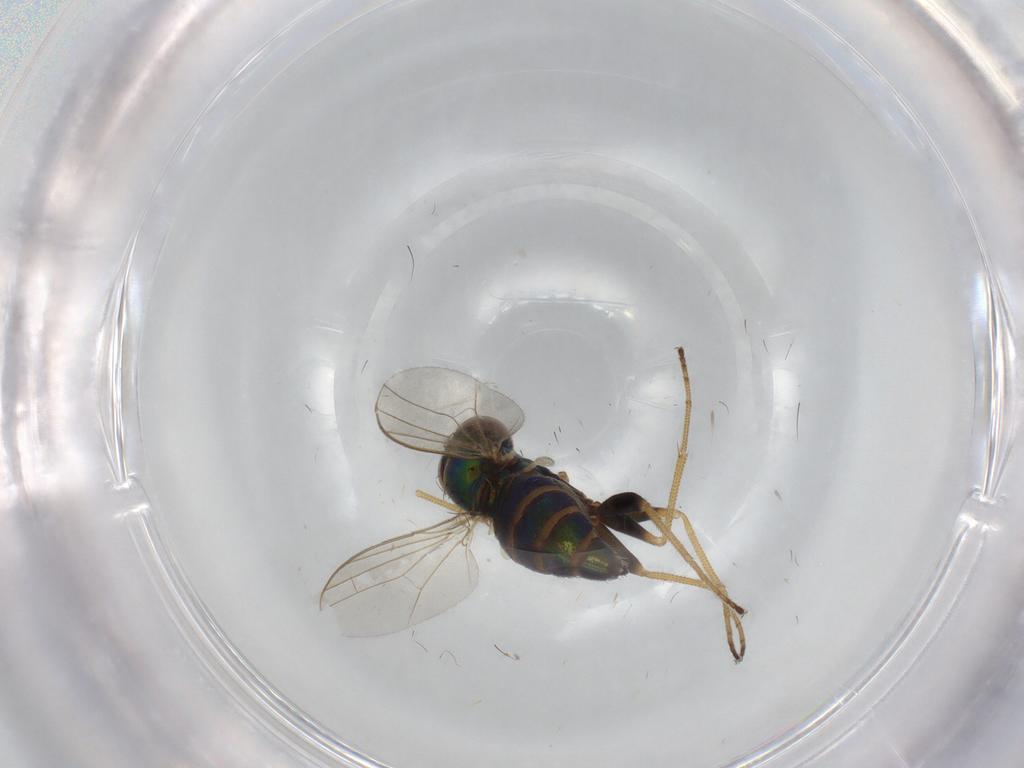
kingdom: Animalia
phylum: Arthropoda
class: Insecta
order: Diptera
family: Dolichopodidae
